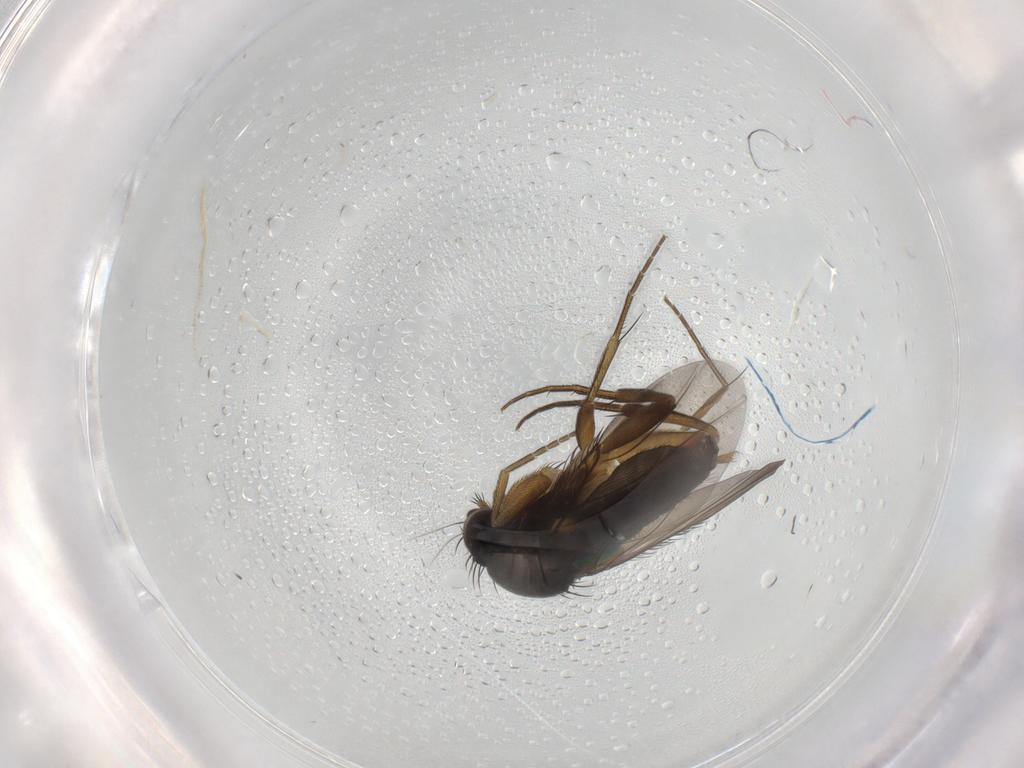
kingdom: Animalia
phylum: Arthropoda
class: Insecta
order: Diptera
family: Phoridae
